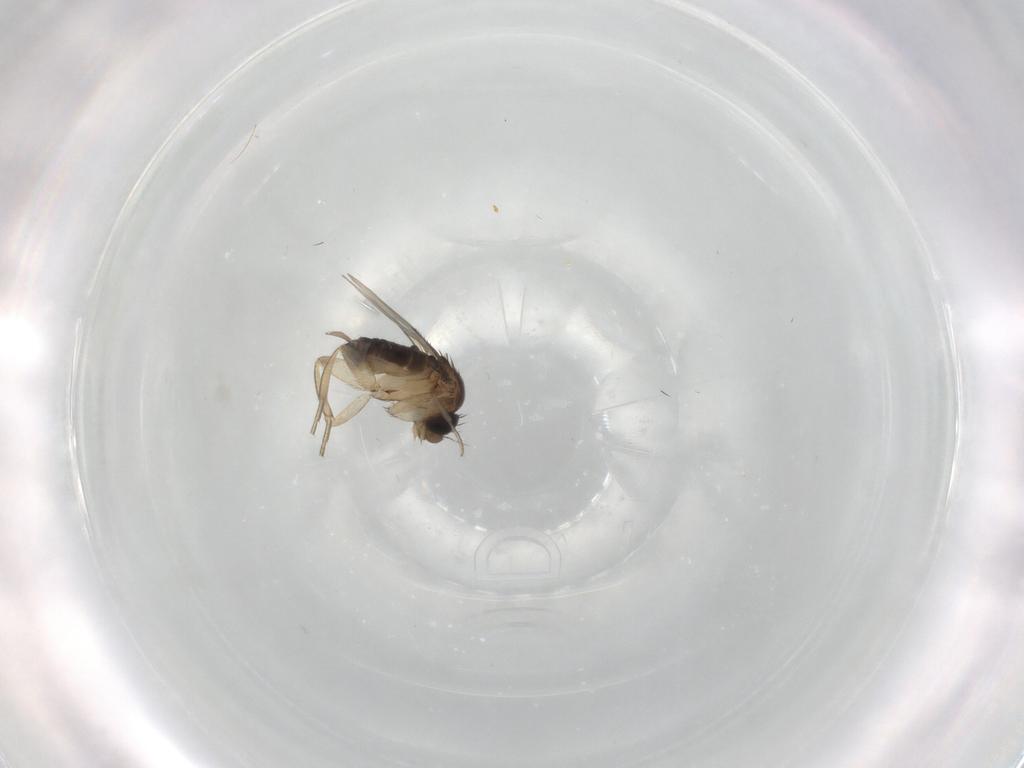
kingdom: Animalia
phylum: Arthropoda
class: Insecta
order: Diptera
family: Phoridae
